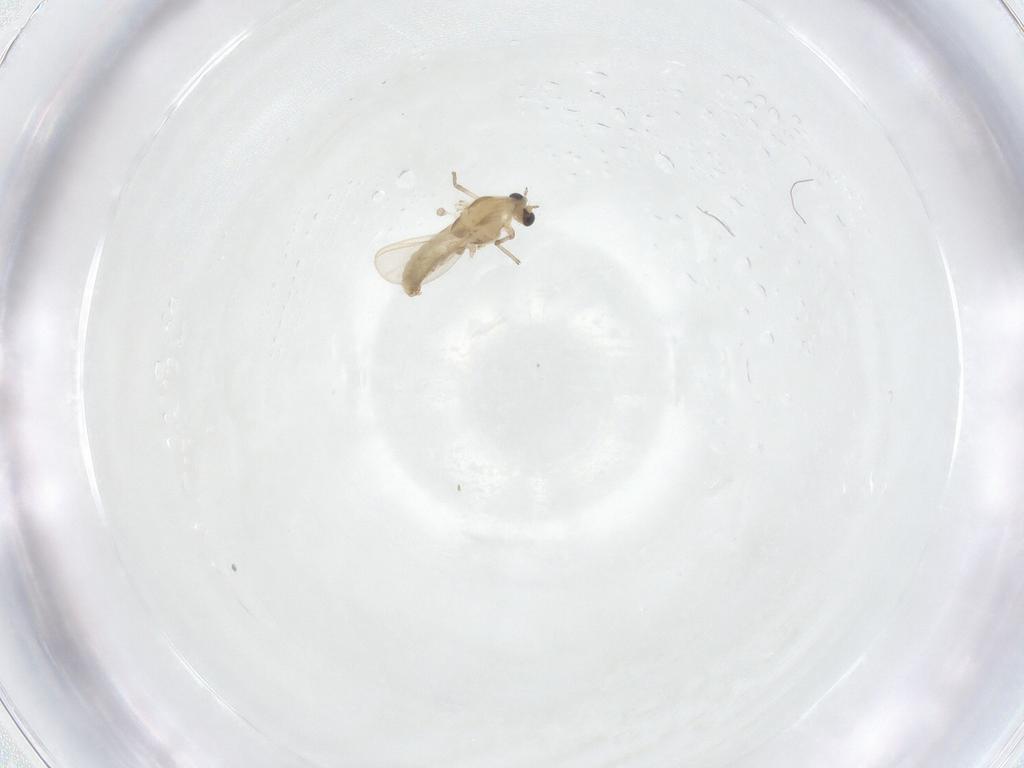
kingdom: Animalia
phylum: Arthropoda
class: Insecta
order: Diptera
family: Chironomidae
